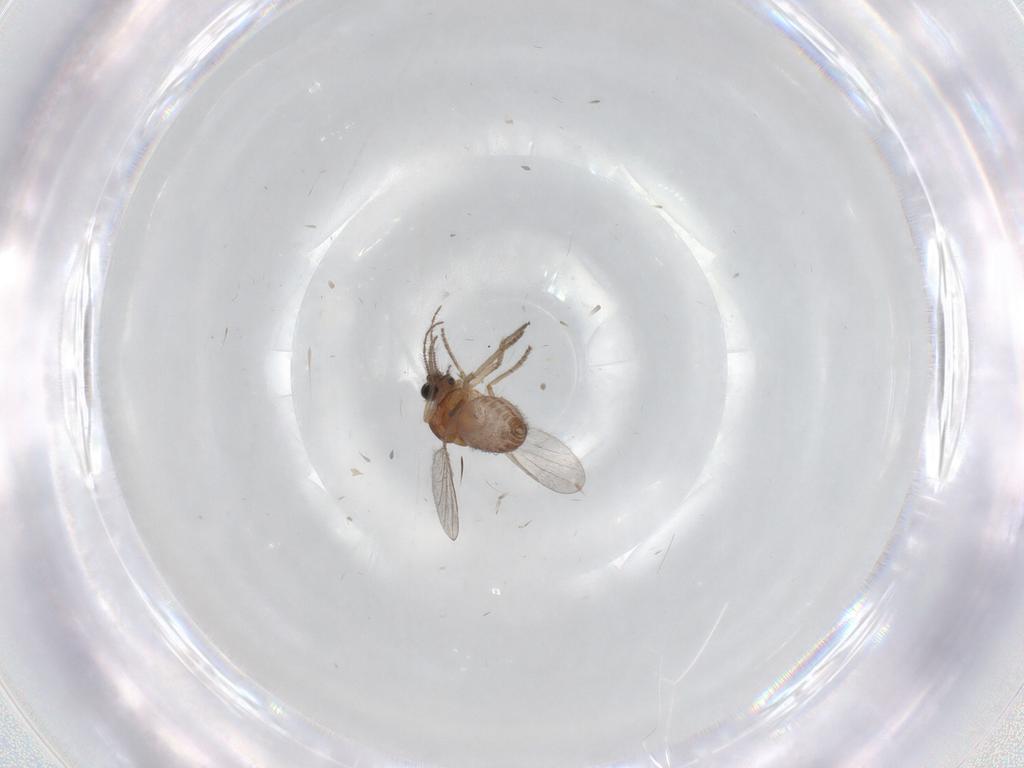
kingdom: Animalia
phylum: Arthropoda
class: Insecta
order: Diptera
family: Ceratopogonidae
